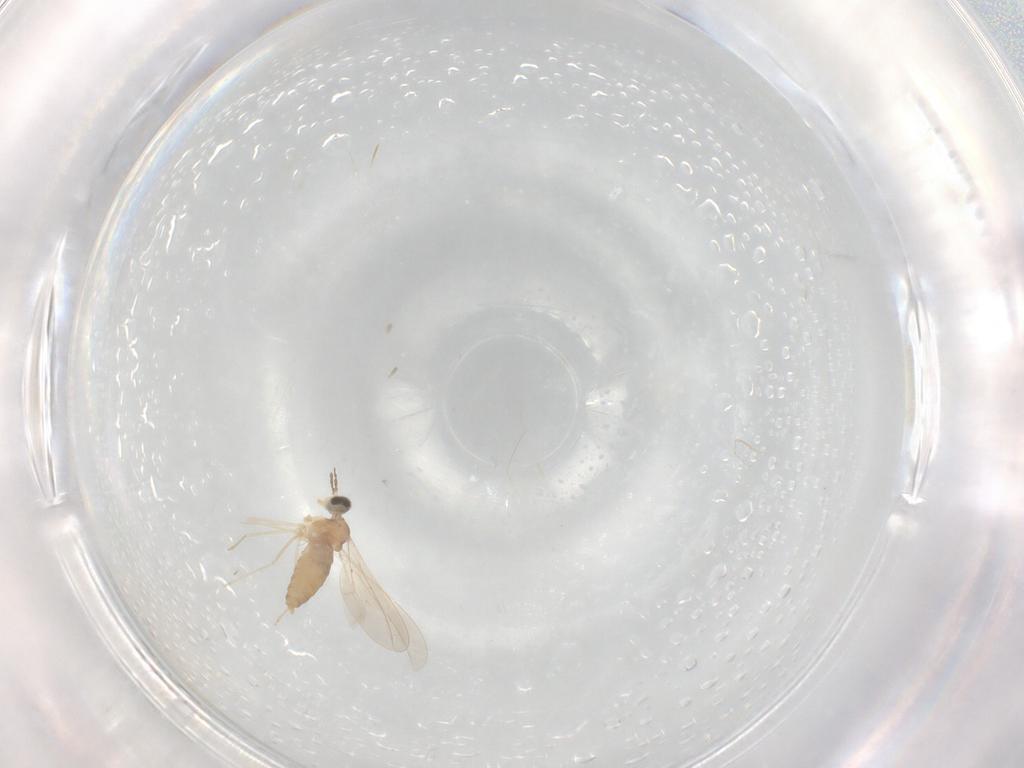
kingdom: Animalia
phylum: Arthropoda
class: Insecta
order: Diptera
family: Cecidomyiidae
